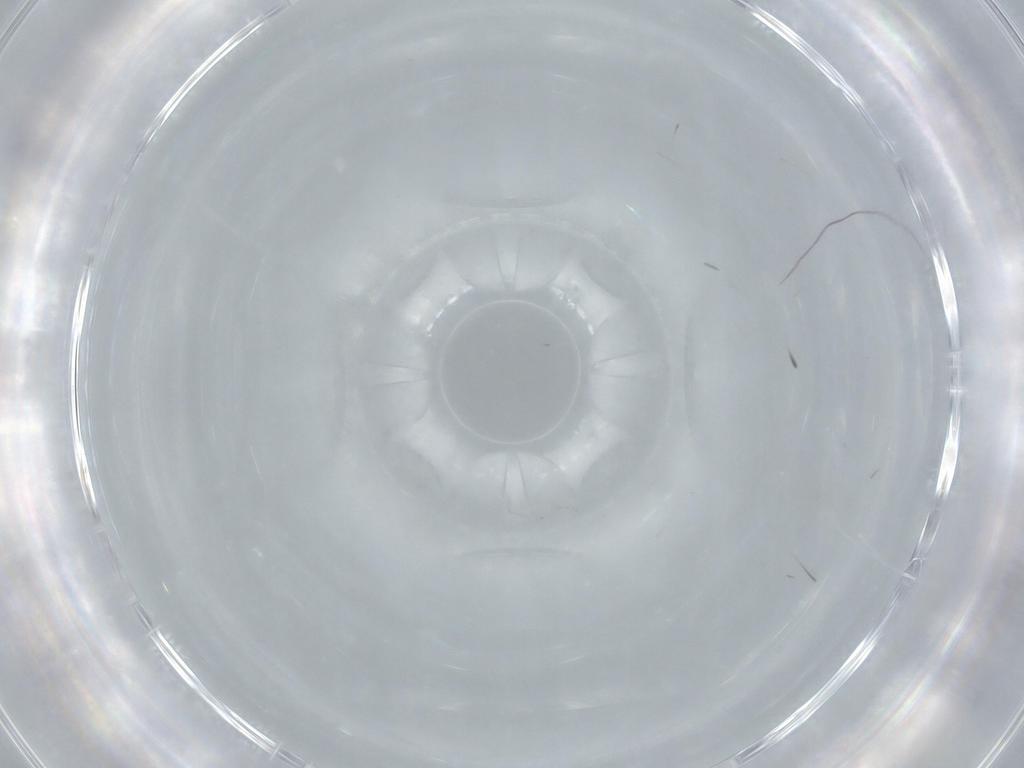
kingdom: Animalia
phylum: Arthropoda
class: Insecta
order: Diptera
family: Cecidomyiidae
